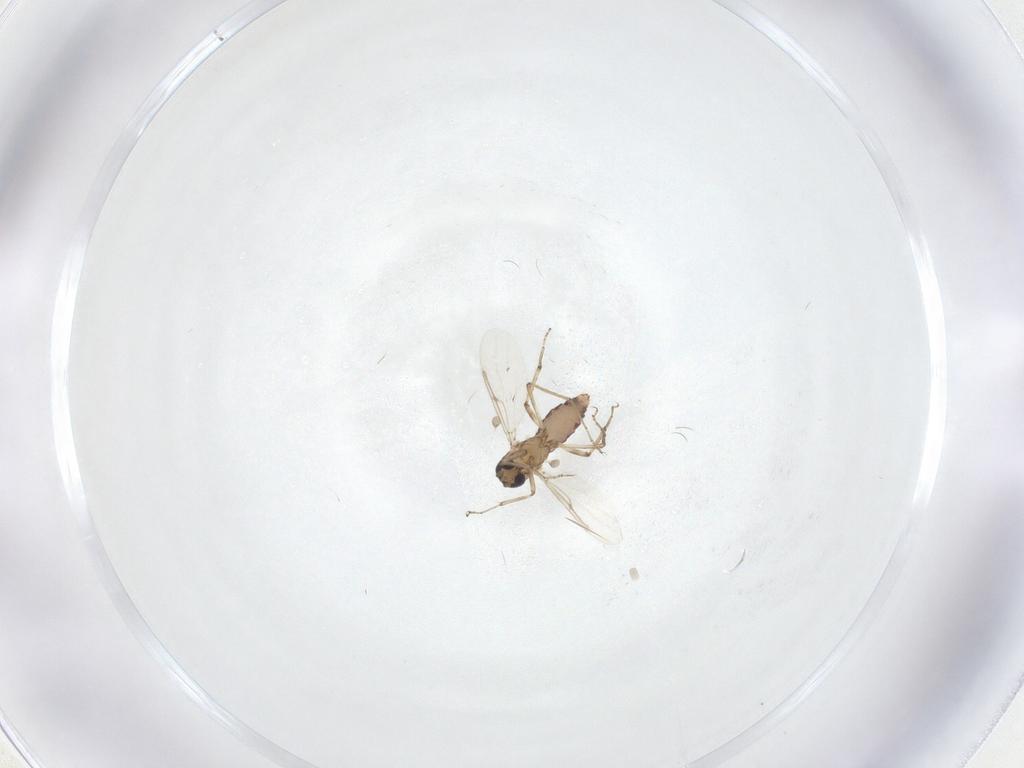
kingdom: Animalia
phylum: Arthropoda
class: Insecta
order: Diptera
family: Ceratopogonidae
